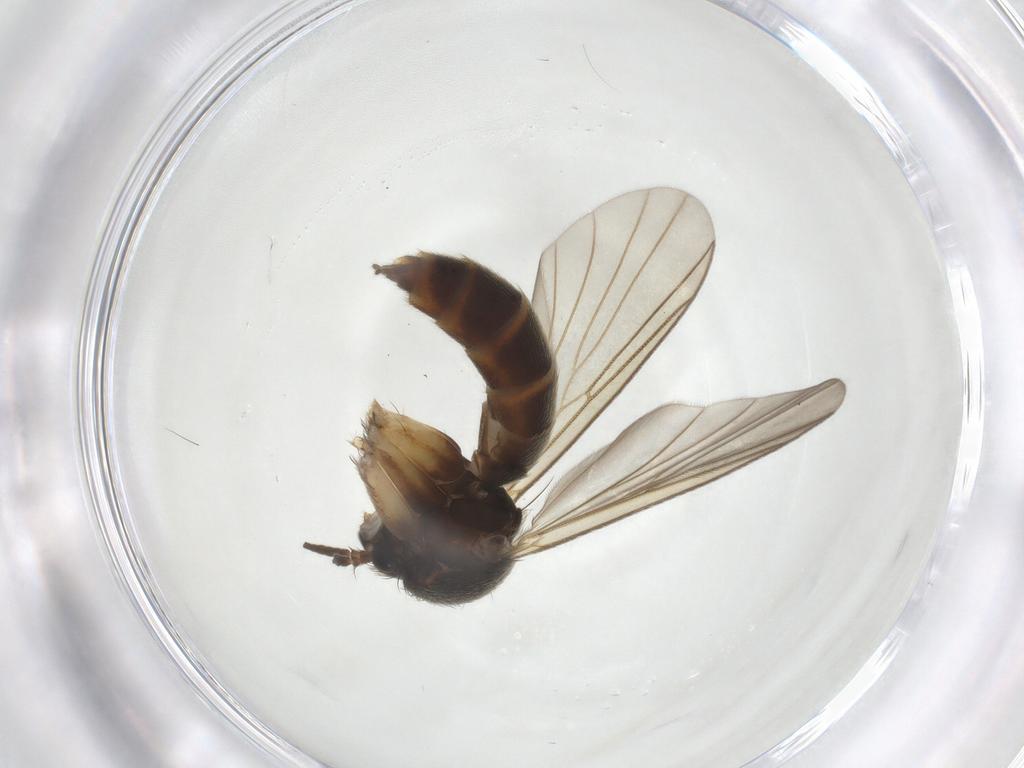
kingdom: Animalia
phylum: Arthropoda
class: Insecta
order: Diptera
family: Mycetophilidae
